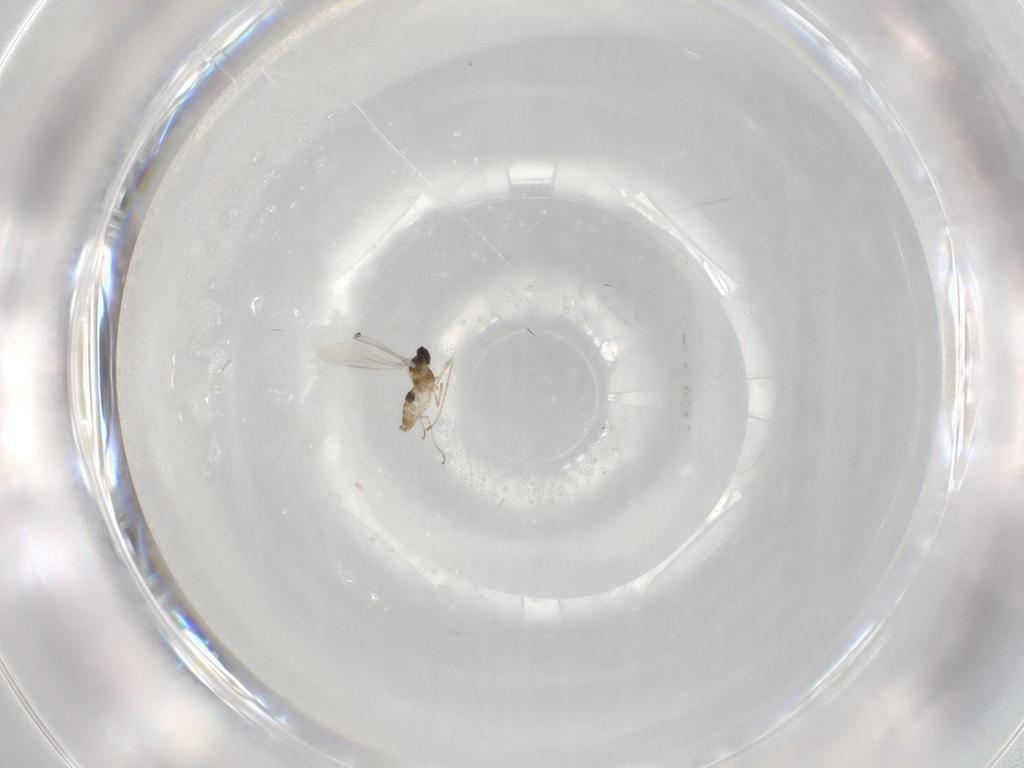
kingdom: Animalia
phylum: Arthropoda
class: Insecta
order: Diptera
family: Cecidomyiidae
